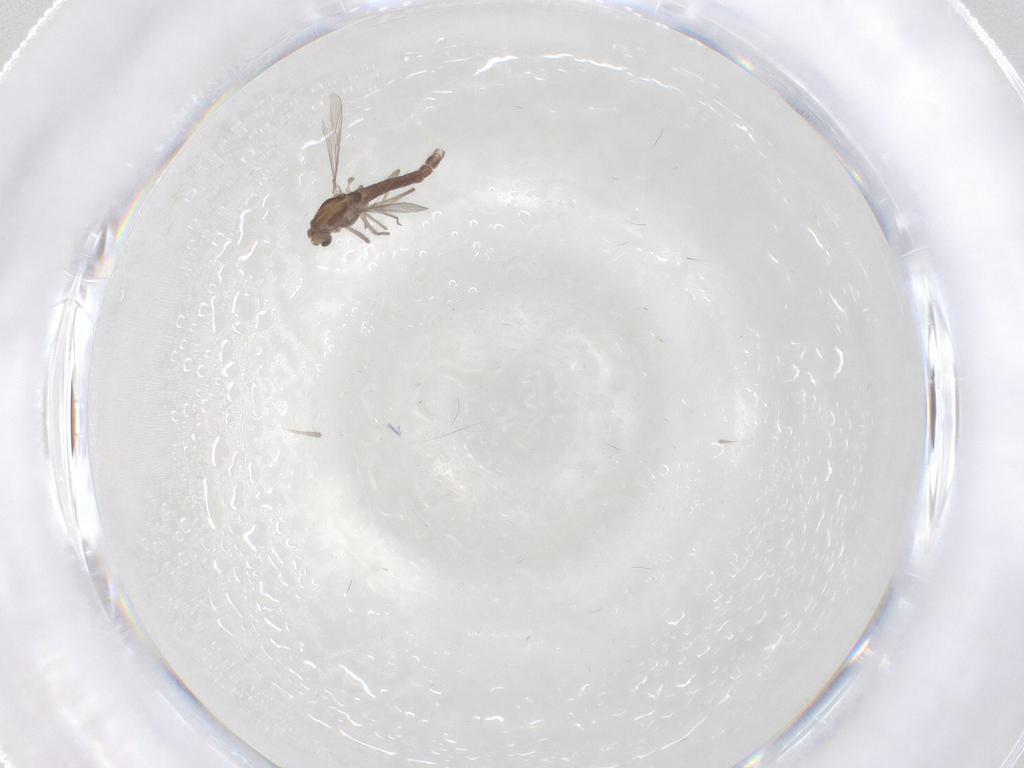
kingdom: Animalia
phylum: Arthropoda
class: Insecta
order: Diptera
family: Chironomidae
